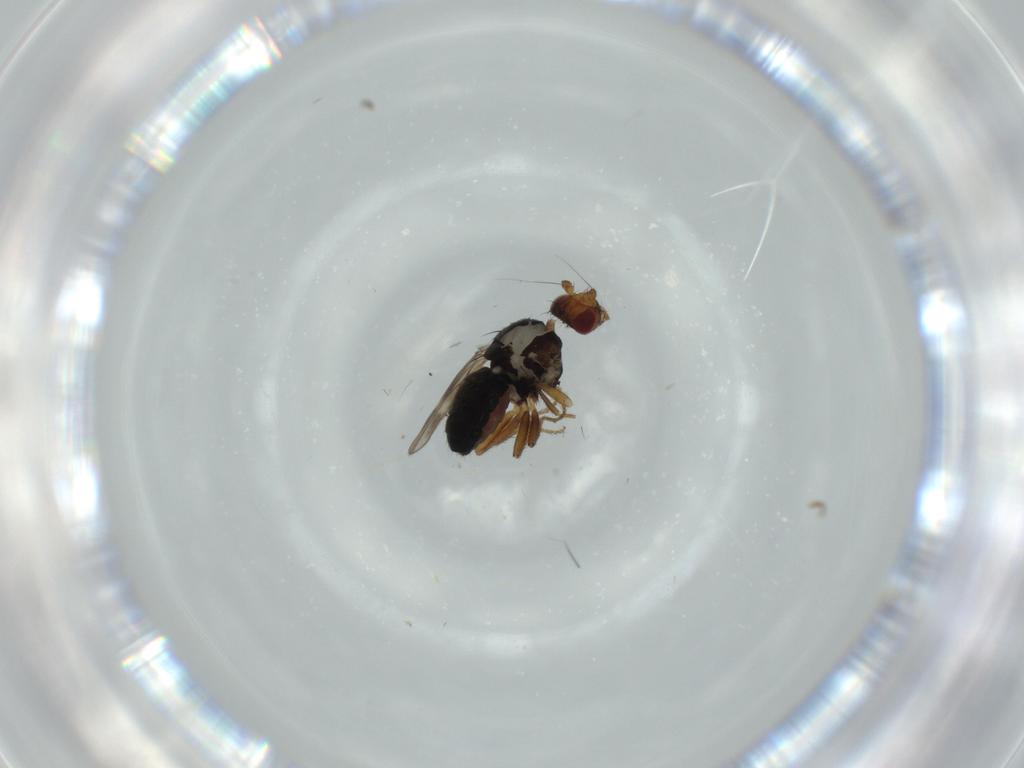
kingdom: Animalia
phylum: Arthropoda
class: Insecta
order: Diptera
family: Sphaeroceridae
